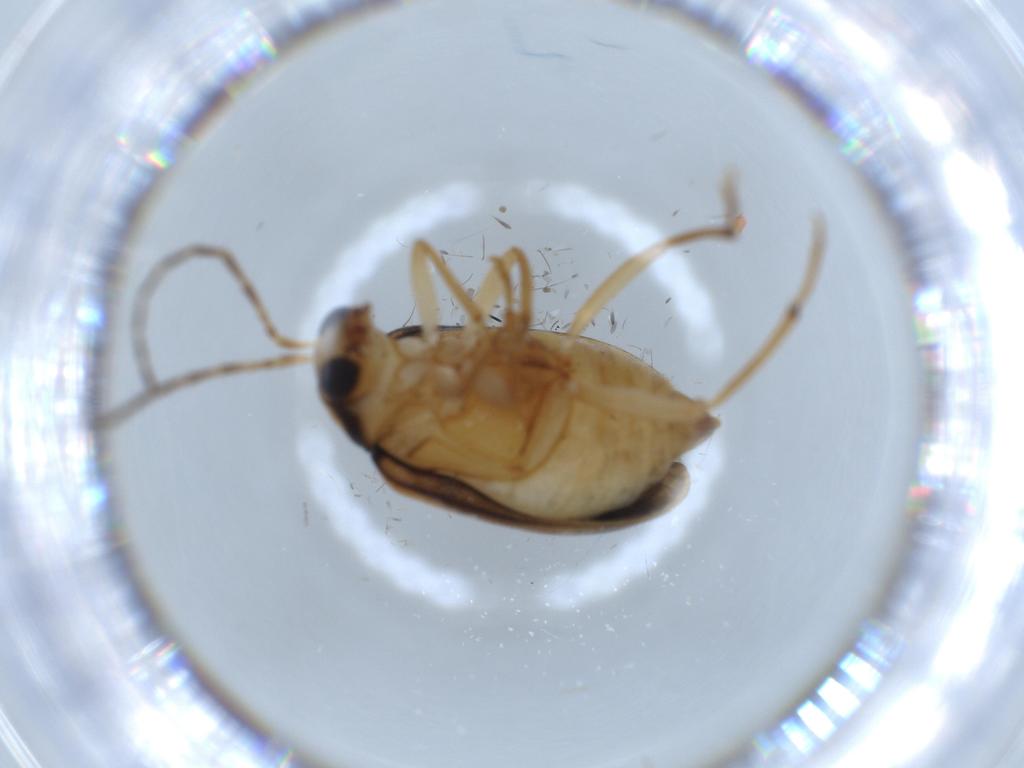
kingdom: Animalia
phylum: Arthropoda
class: Insecta
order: Coleoptera
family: Chrysomelidae
